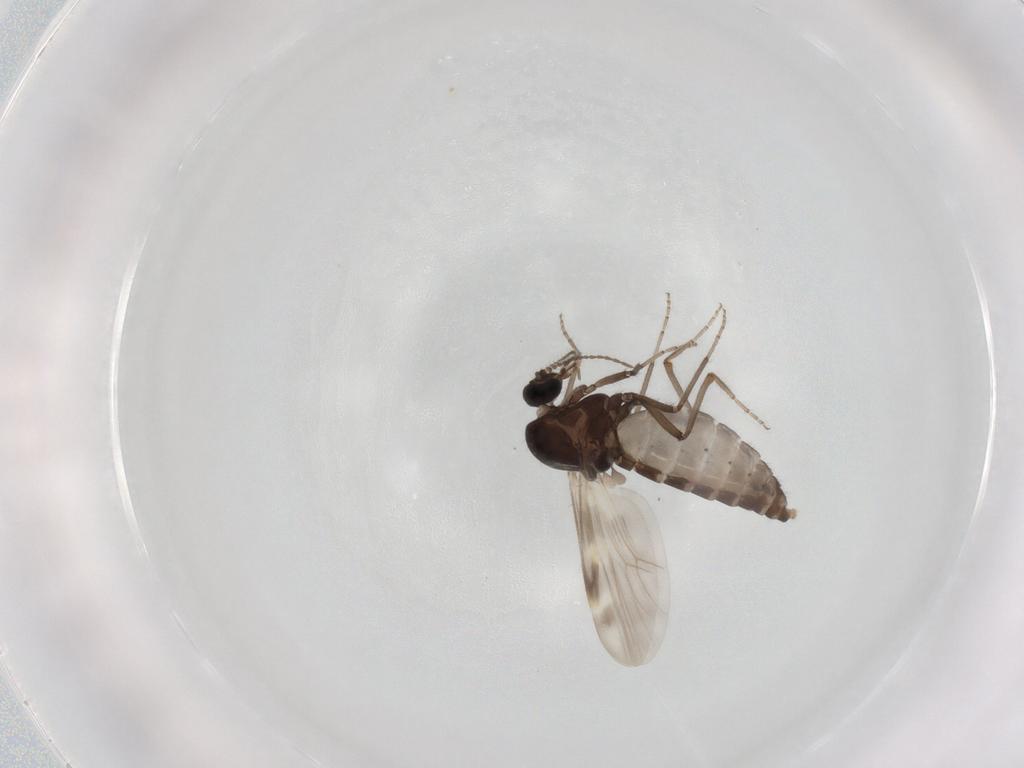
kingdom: Animalia
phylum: Arthropoda
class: Insecta
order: Diptera
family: Ceratopogonidae
